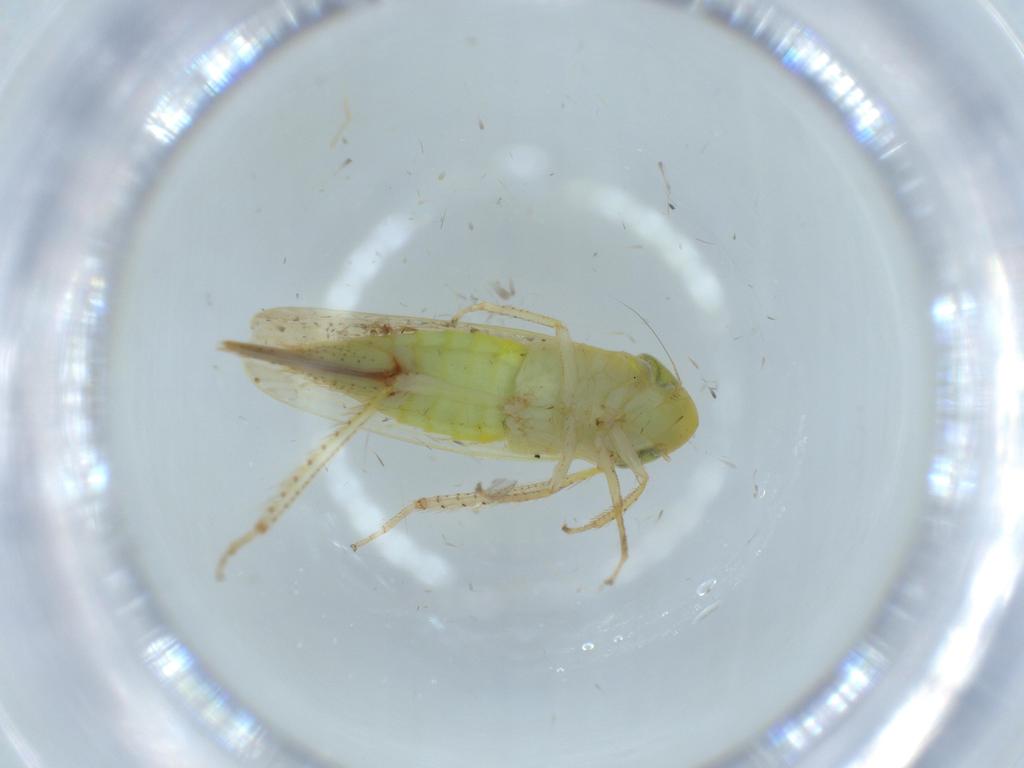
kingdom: Animalia
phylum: Arthropoda
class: Insecta
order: Hemiptera
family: Cicadellidae
